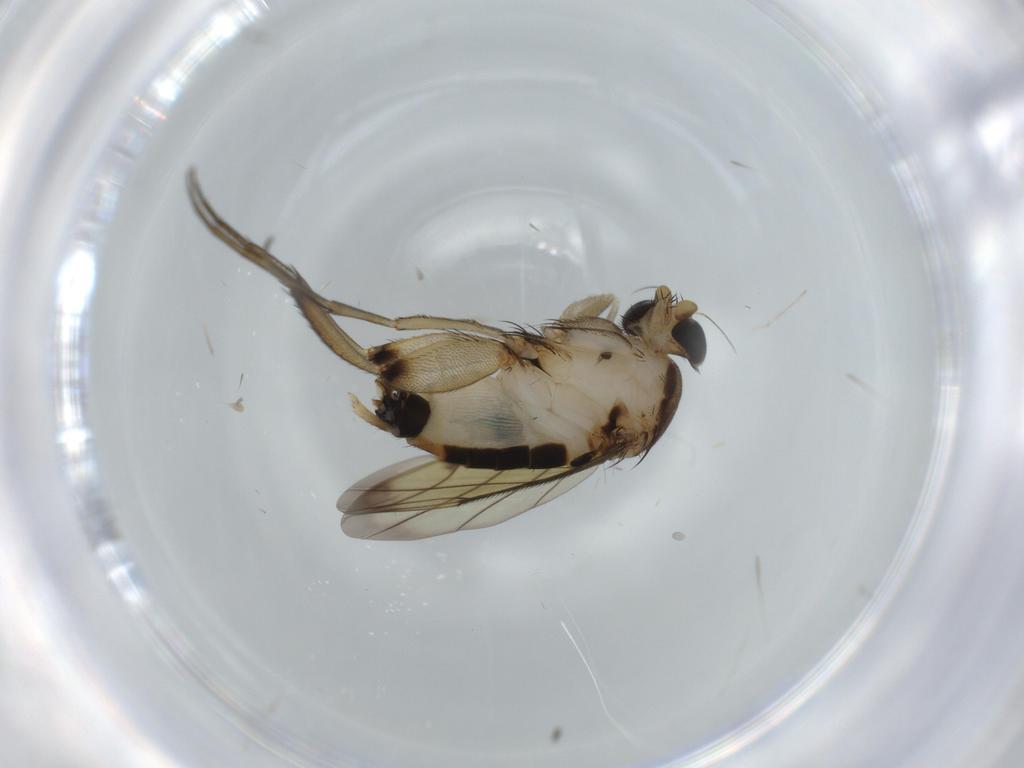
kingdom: Animalia
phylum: Arthropoda
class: Insecta
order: Diptera
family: Phoridae
